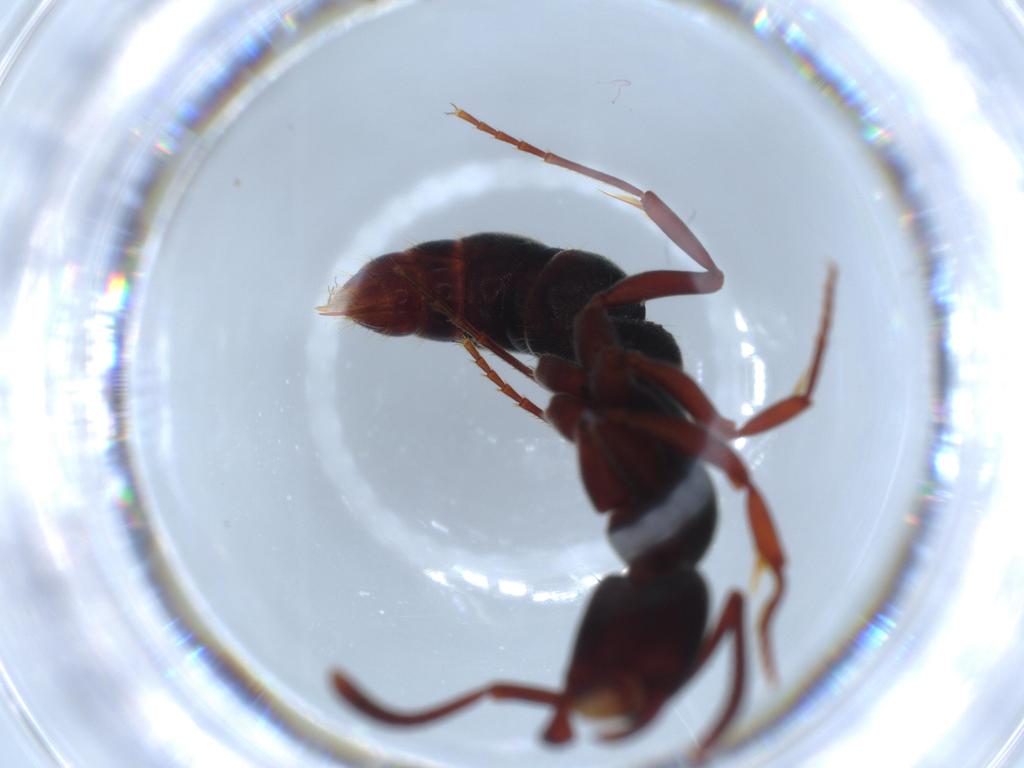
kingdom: Animalia
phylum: Arthropoda
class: Insecta
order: Hymenoptera
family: Formicidae
